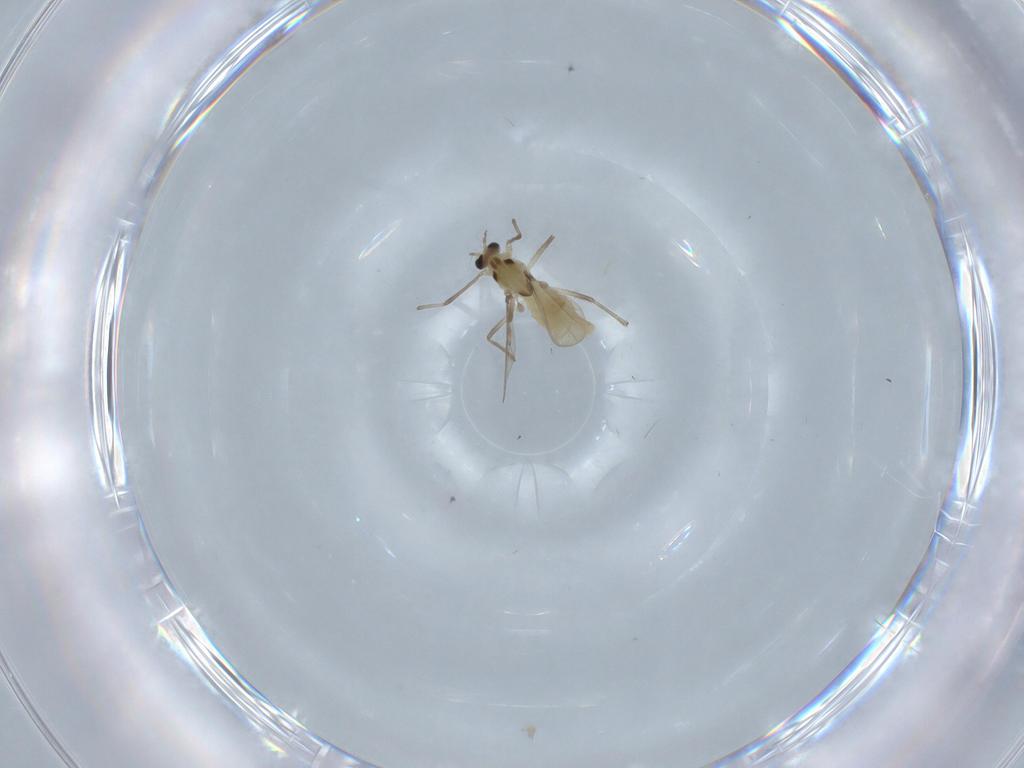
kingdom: Animalia
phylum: Arthropoda
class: Insecta
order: Diptera
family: Chironomidae
